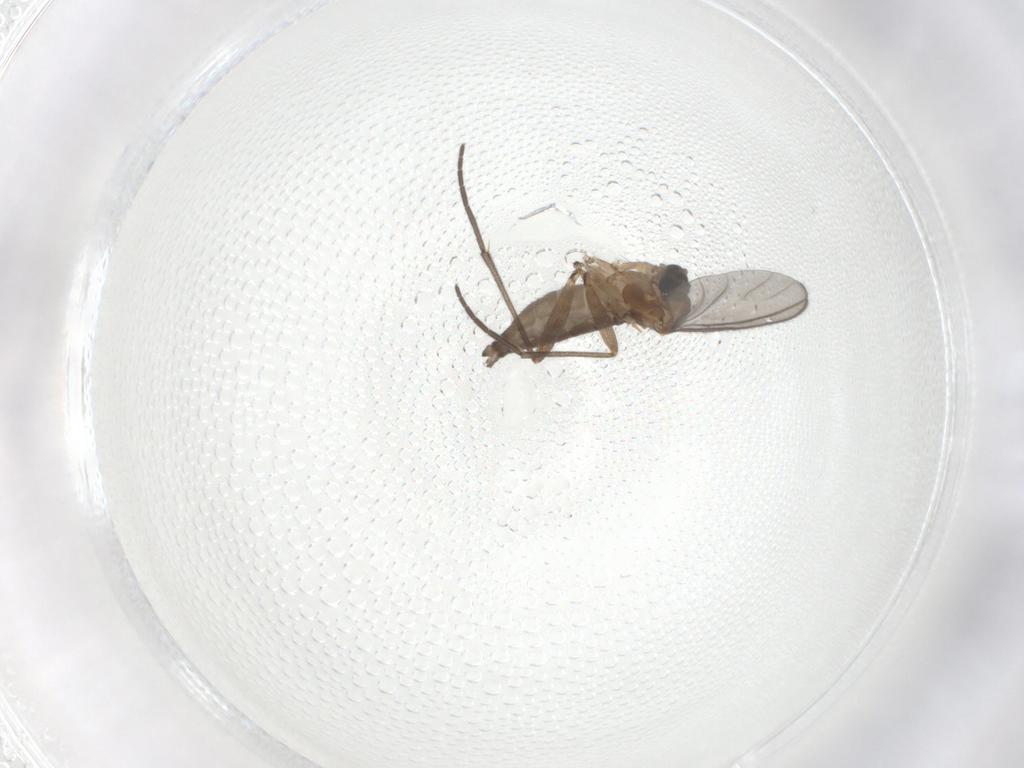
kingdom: Animalia
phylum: Arthropoda
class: Insecta
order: Diptera
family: Sciaridae
